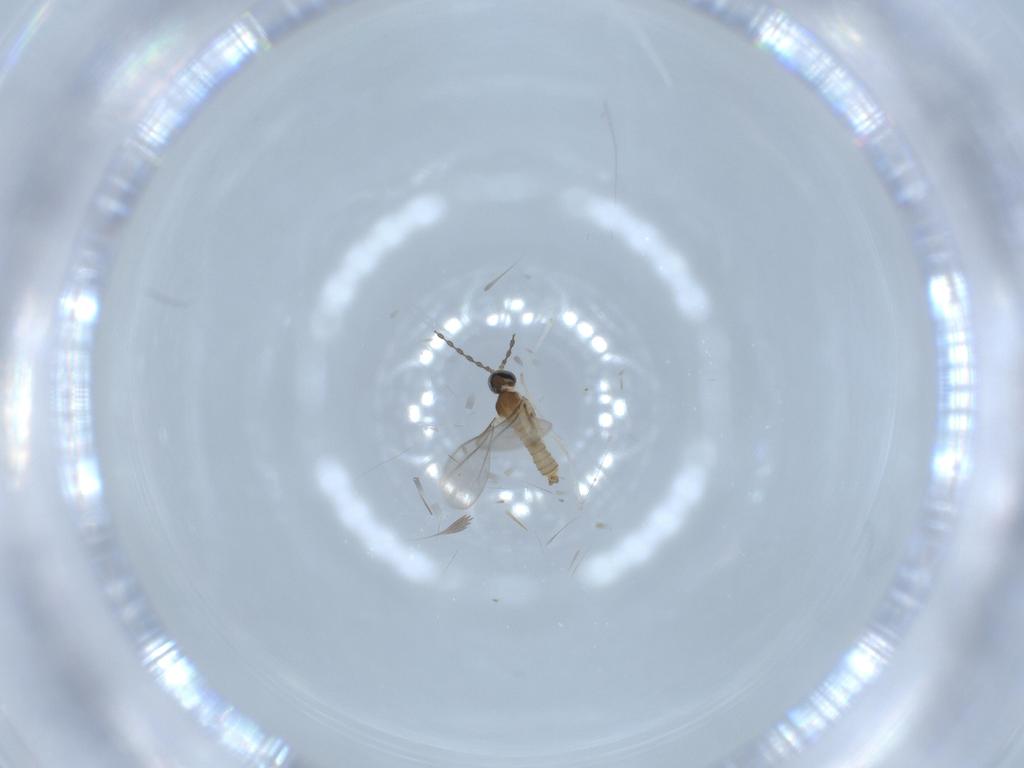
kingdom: Animalia
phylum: Arthropoda
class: Insecta
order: Diptera
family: Cecidomyiidae
